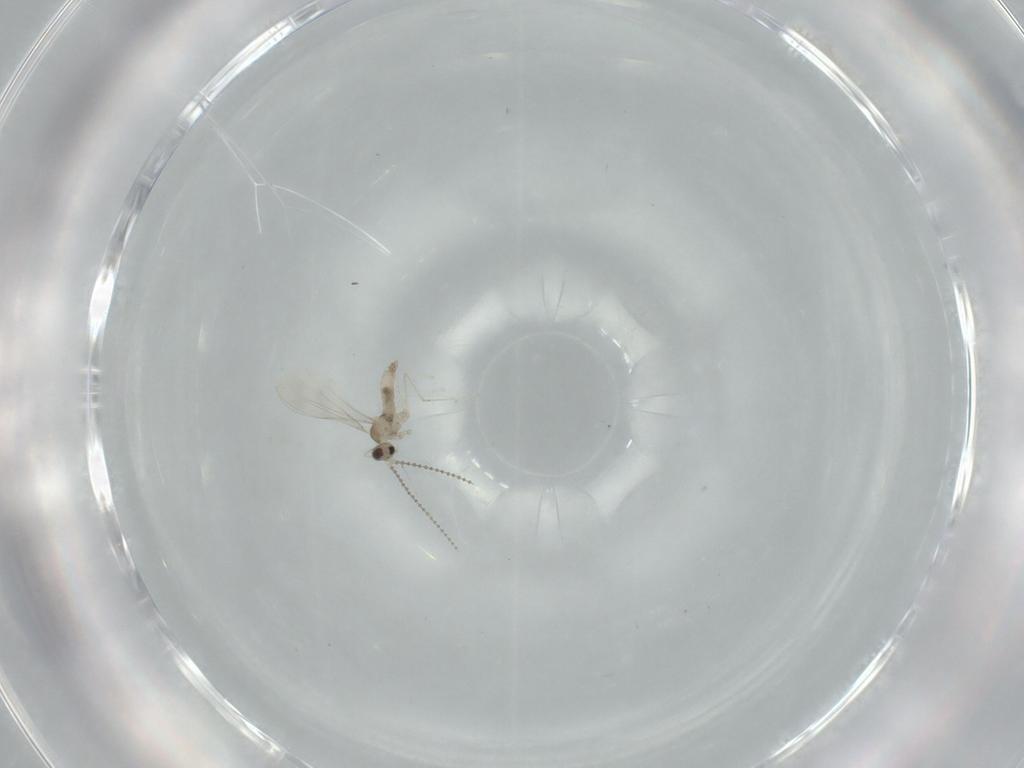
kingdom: Animalia
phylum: Arthropoda
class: Insecta
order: Diptera
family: Cecidomyiidae
